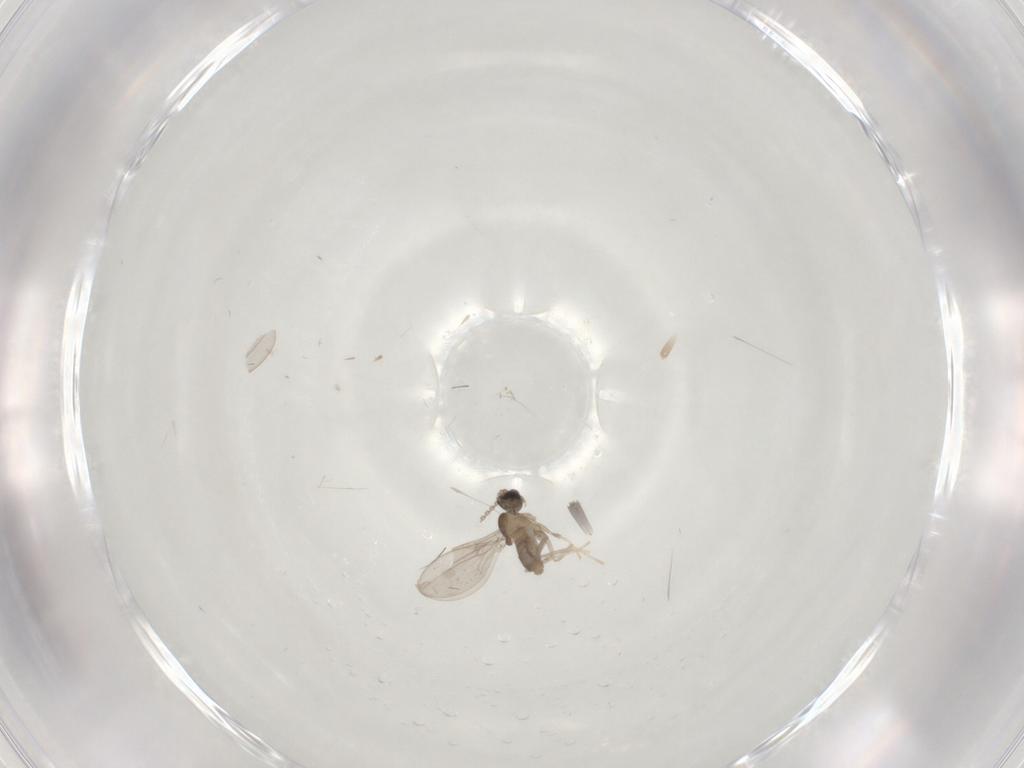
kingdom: Animalia
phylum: Arthropoda
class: Insecta
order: Diptera
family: Cecidomyiidae
